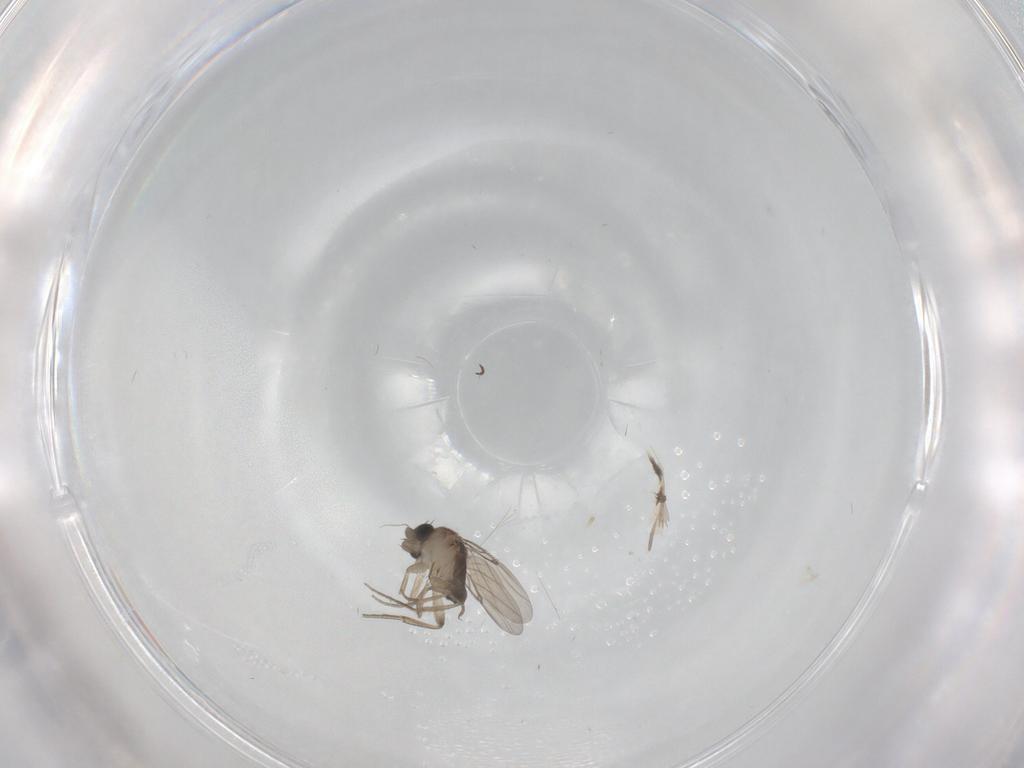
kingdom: Animalia
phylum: Arthropoda
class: Insecta
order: Diptera
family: Phoridae
